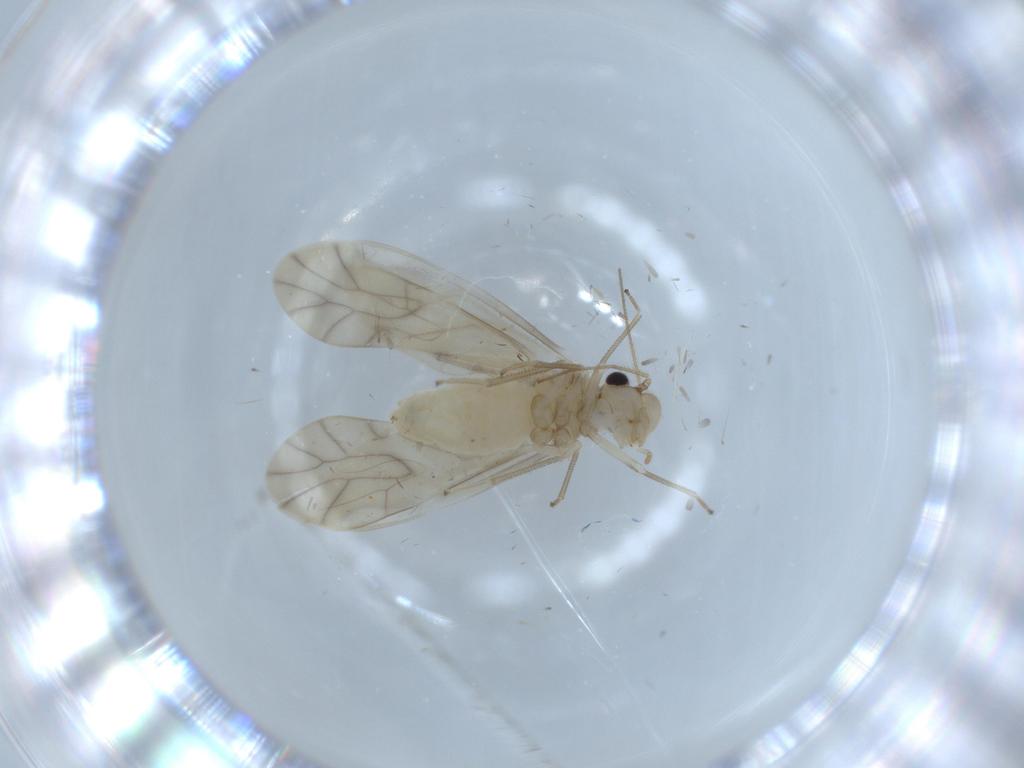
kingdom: Animalia
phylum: Arthropoda
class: Insecta
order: Psocodea
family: Caeciliusidae
